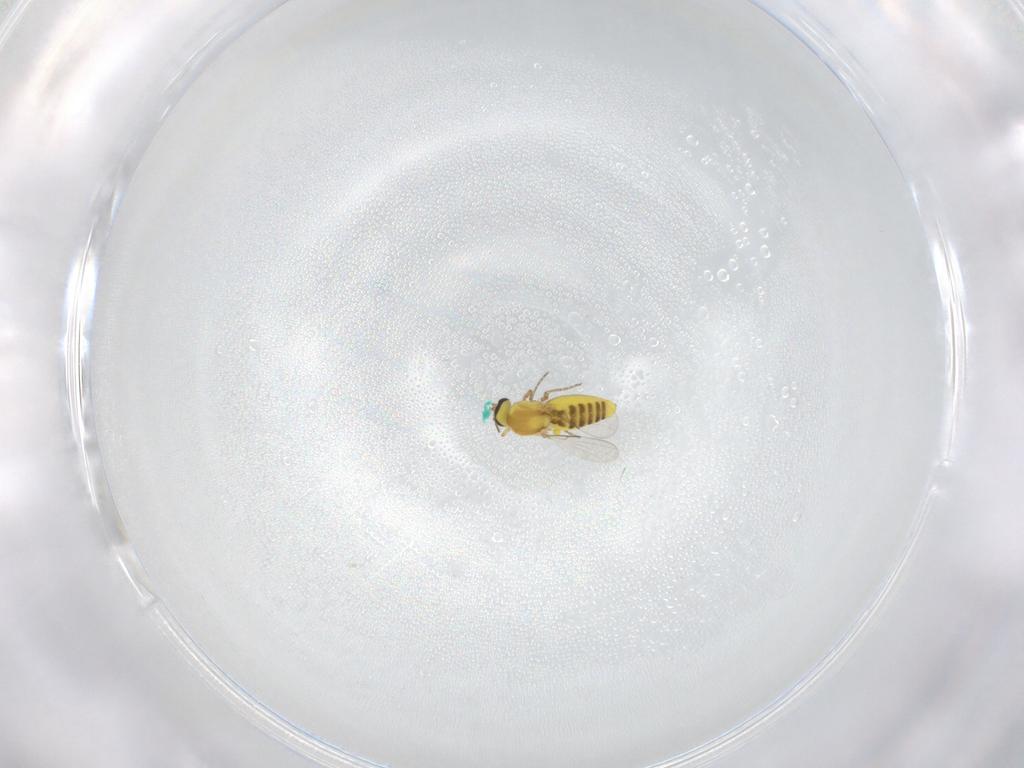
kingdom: Animalia
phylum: Arthropoda
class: Insecta
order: Diptera
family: Ceratopogonidae
